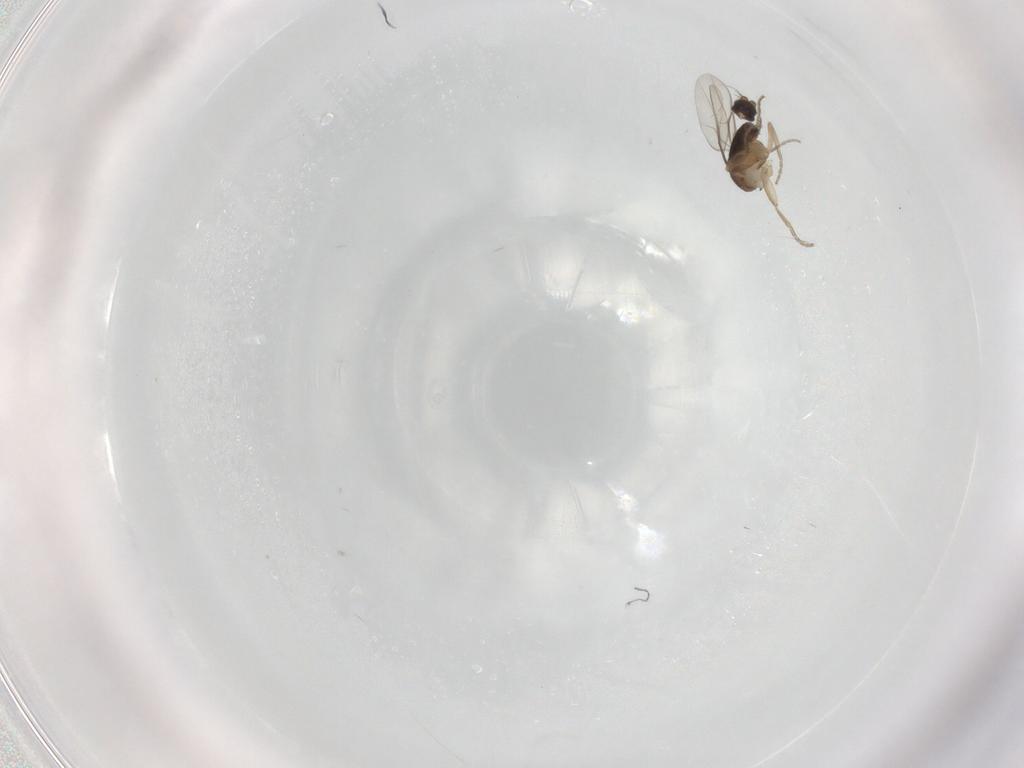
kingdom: Animalia
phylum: Arthropoda
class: Insecta
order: Diptera
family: Phoridae
